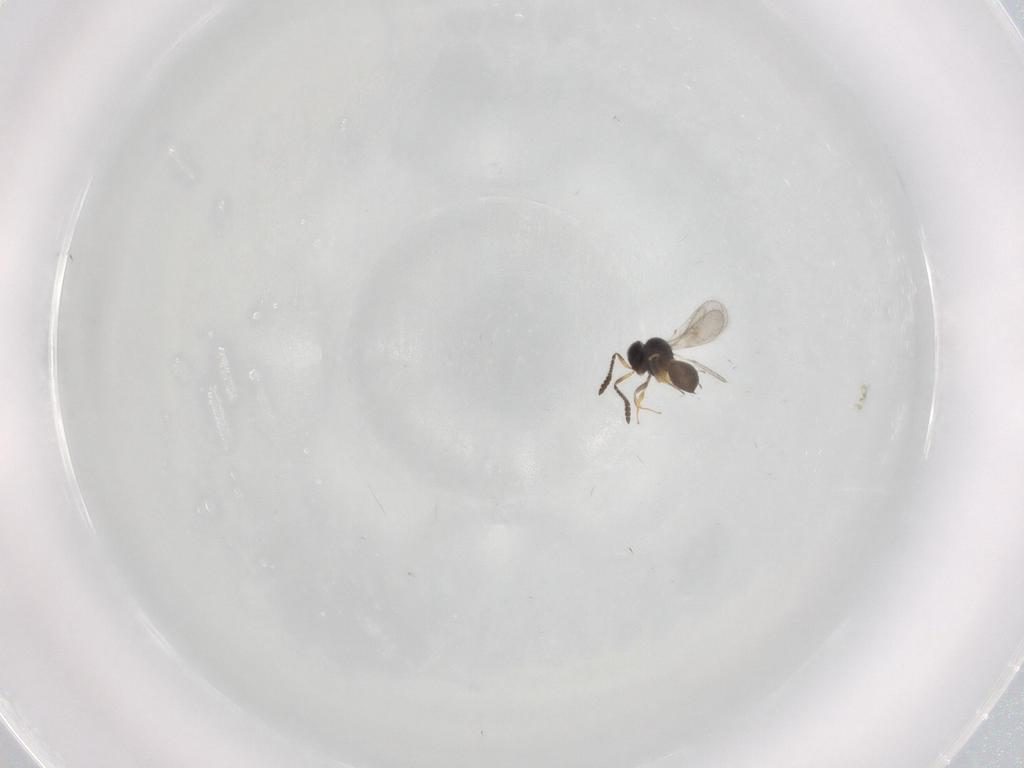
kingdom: Animalia
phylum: Arthropoda
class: Insecta
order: Hymenoptera
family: Scelionidae
